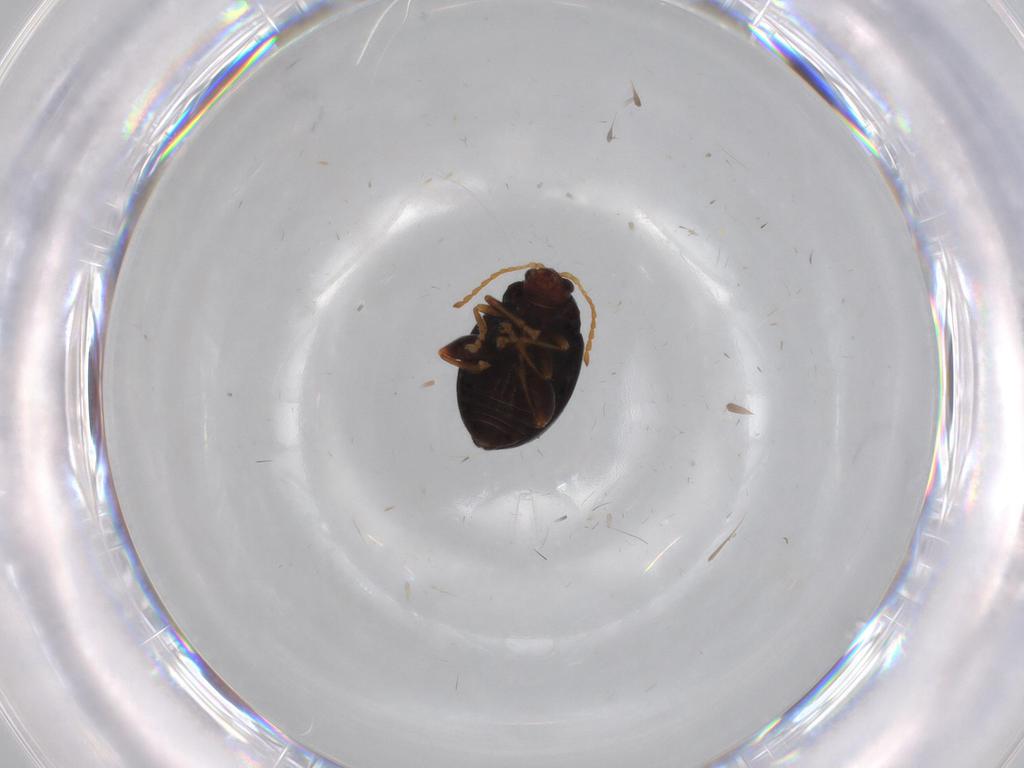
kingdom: Animalia
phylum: Arthropoda
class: Insecta
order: Coleoptera
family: Chrysomelidae
